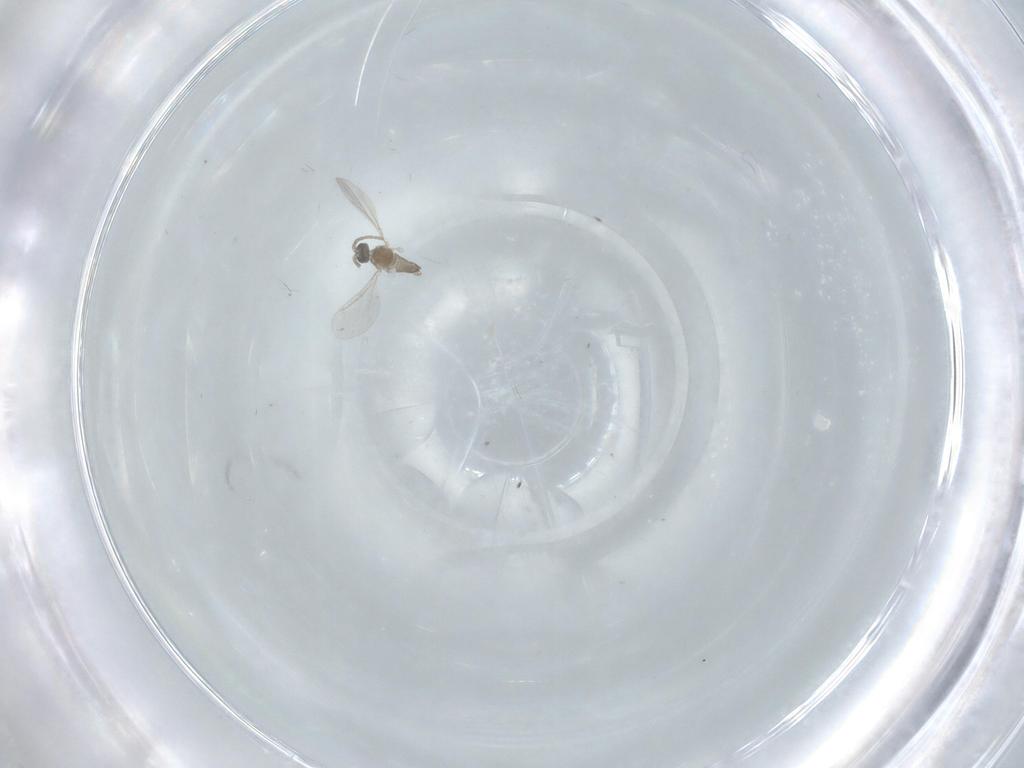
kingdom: Animalia
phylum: Arthropoda
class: Insecta
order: Diptera
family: Cecidomyiidae
